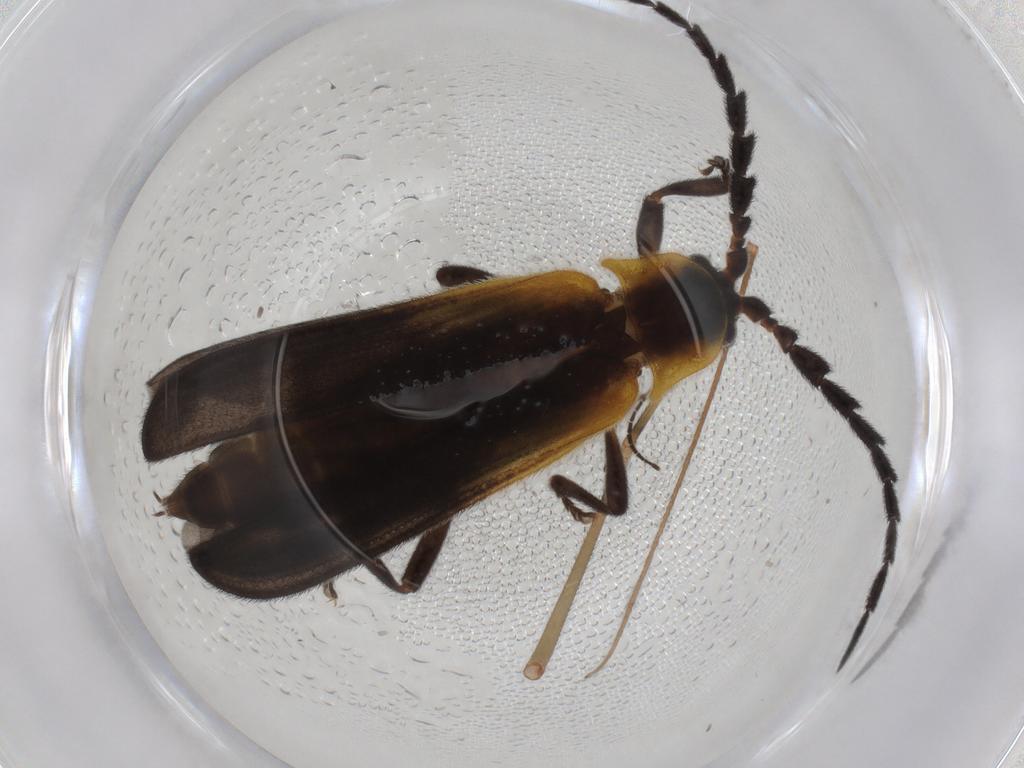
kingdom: Animalia
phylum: Arthropoda
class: Insecta
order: Coleoptera
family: Lycidae
